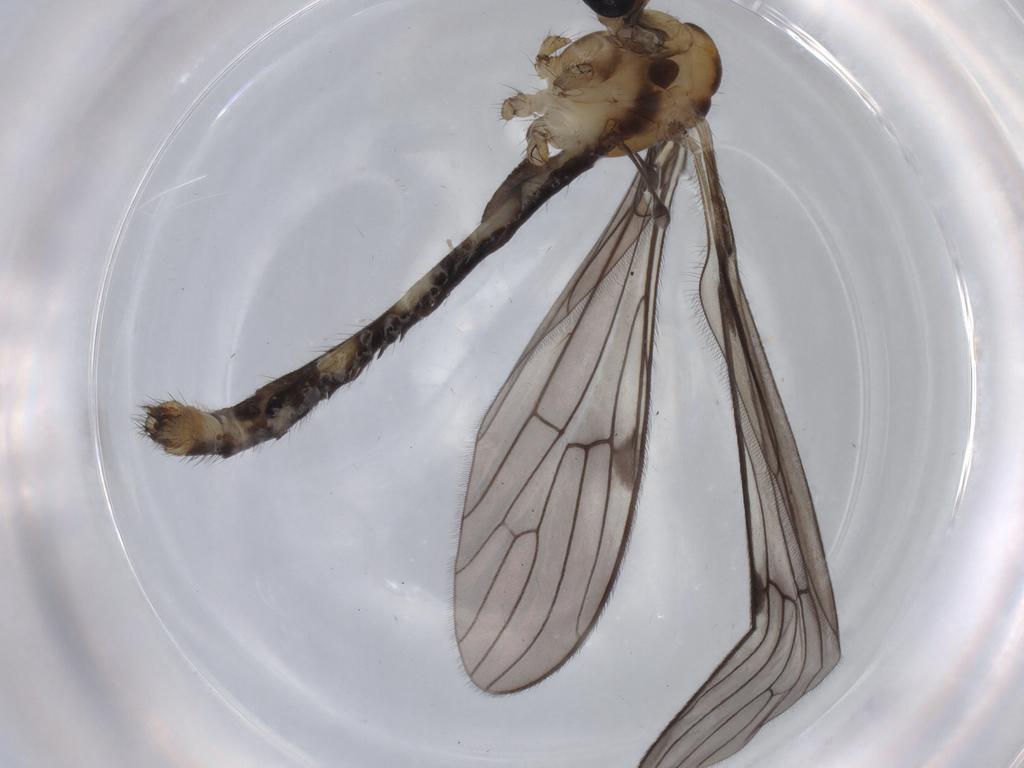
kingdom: Animalia
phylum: Arthropoda
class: Insecta
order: Diptera
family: Limoniidae
